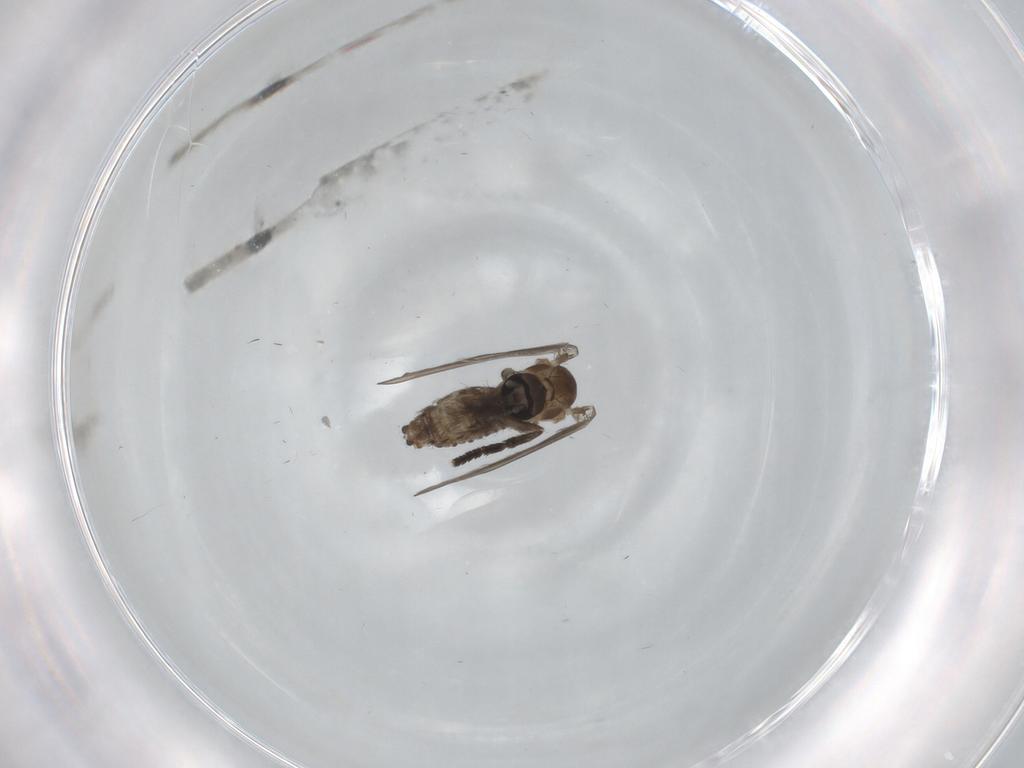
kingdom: Animalia
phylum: Arthropoda
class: Insecta
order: Diptera
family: Psychodidae
